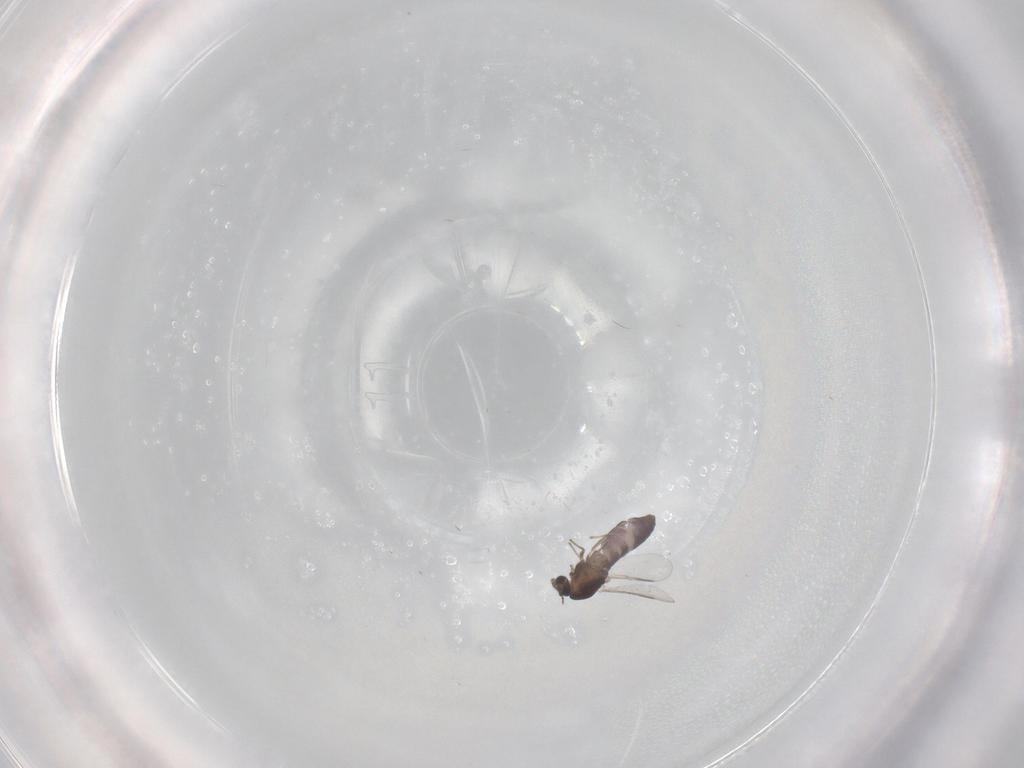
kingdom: Animalia
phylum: Arthropoda
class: Insecta
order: Diptera
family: Chironomidae
